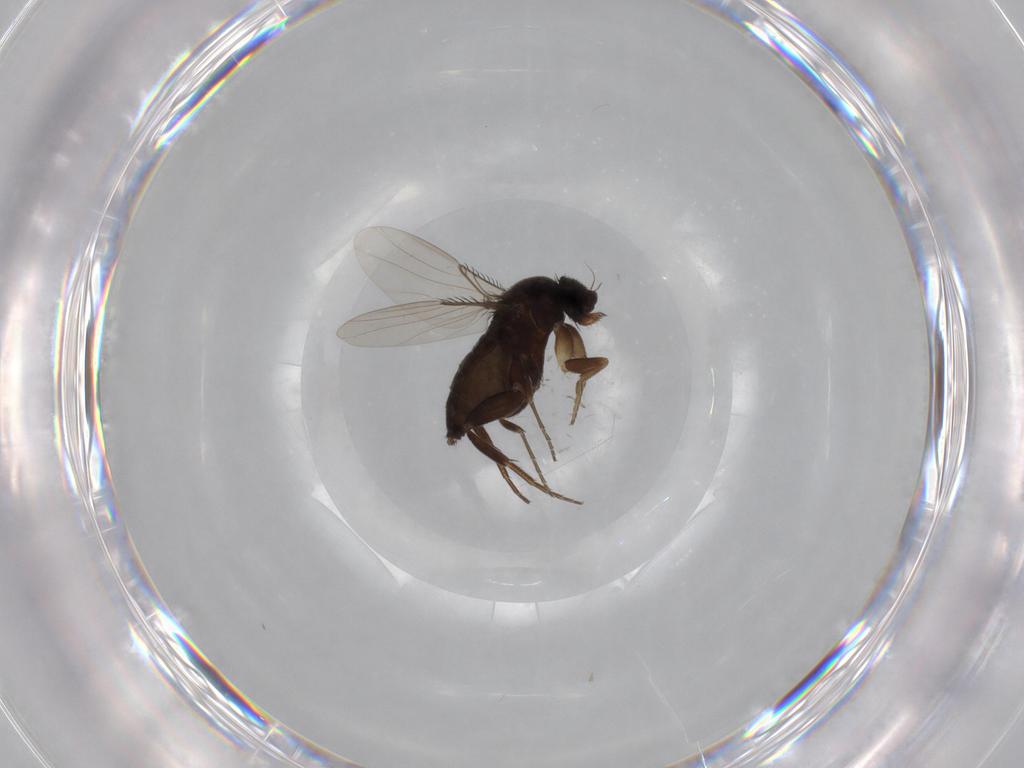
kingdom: Animalia
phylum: Arthropoda
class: Insecta
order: Diptera
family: Phoridae
